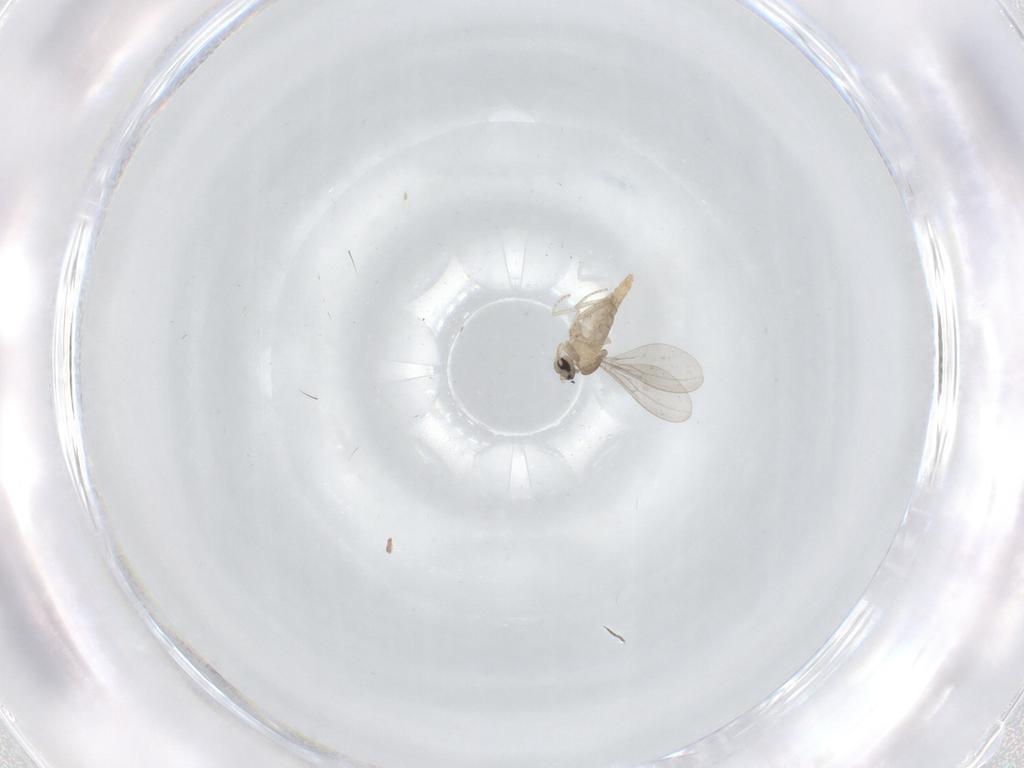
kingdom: Animalia
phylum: Arthropoda
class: Insecta
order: Diptera
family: Cecidomyiidae
